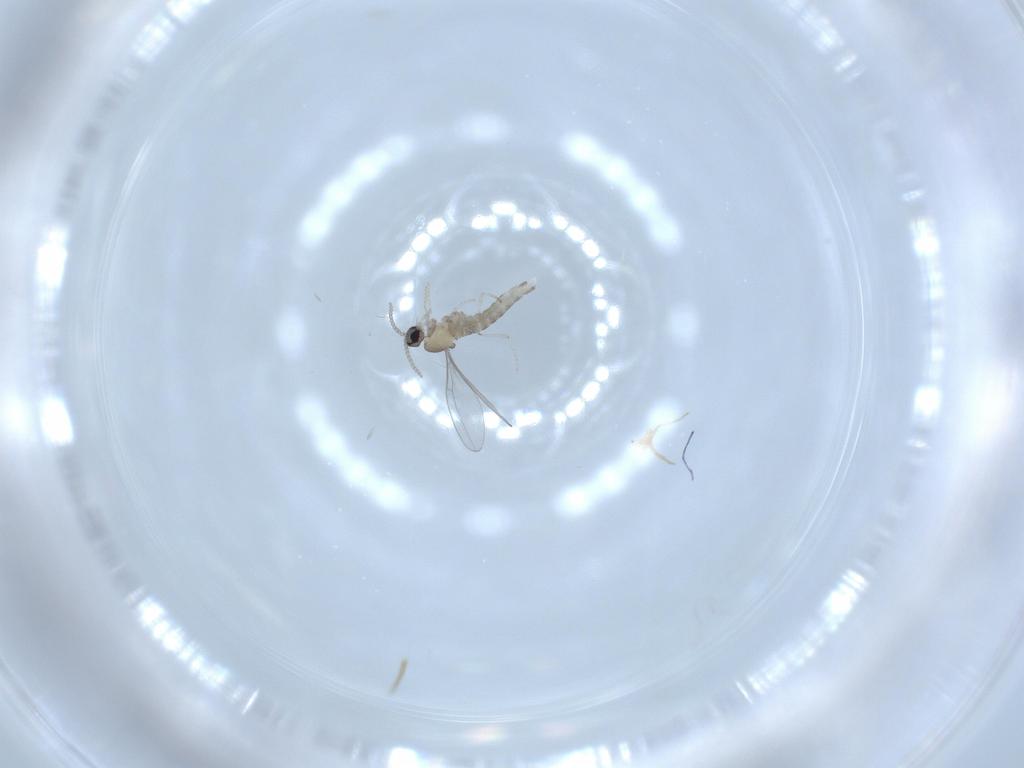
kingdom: Animalia
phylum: Arthropoda
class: Insecta
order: Diptera
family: Cecidomyiidae
